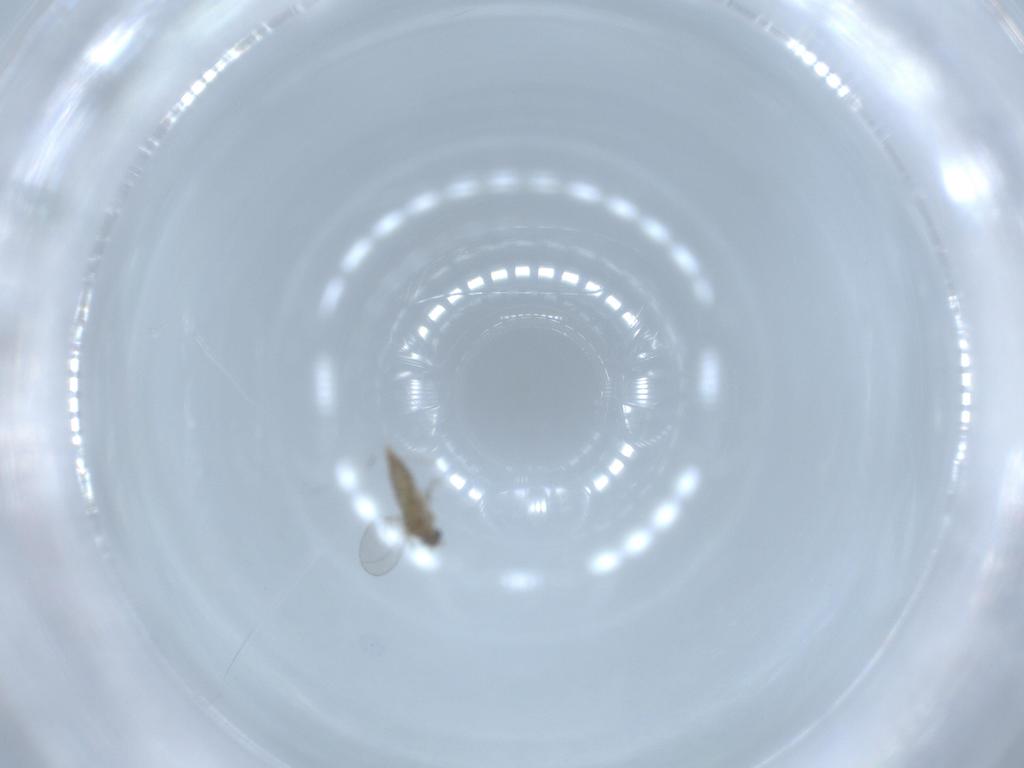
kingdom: Animalia
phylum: Arthropoda
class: Insecta
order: Diptera
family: Cecidomyiidae
